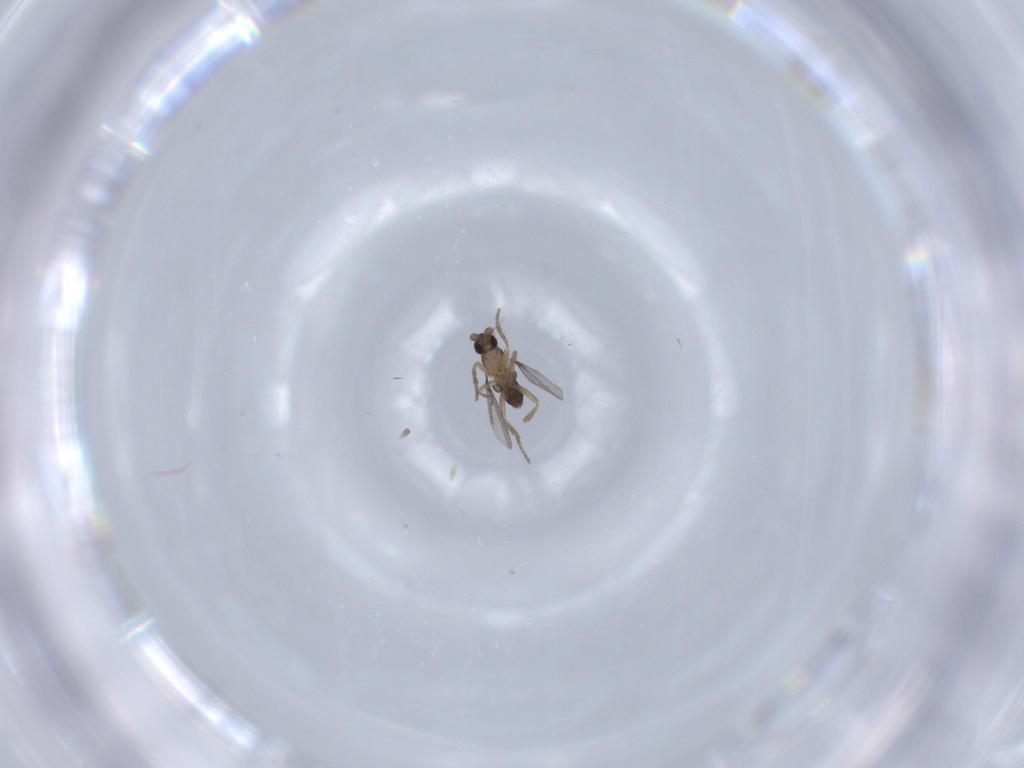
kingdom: Animalia
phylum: Arthropoda
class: Insecta
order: Diptera
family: Phoridae
